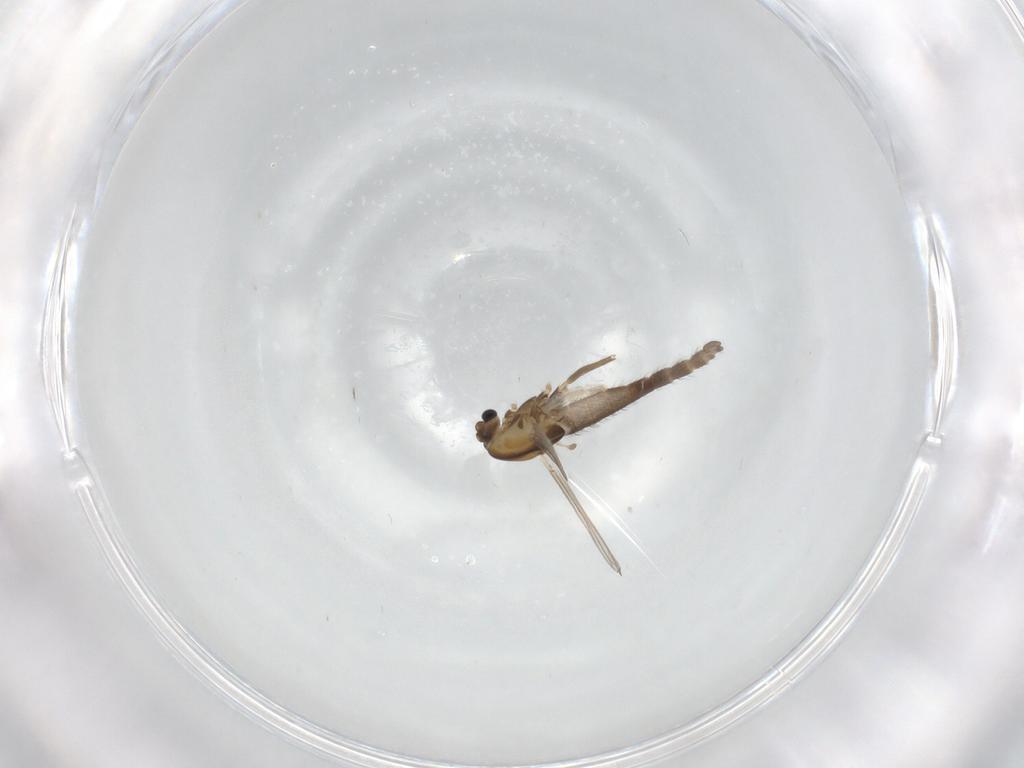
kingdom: Animalia
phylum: Arthropoda
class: Insecta
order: Diptera
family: Chironomidae
